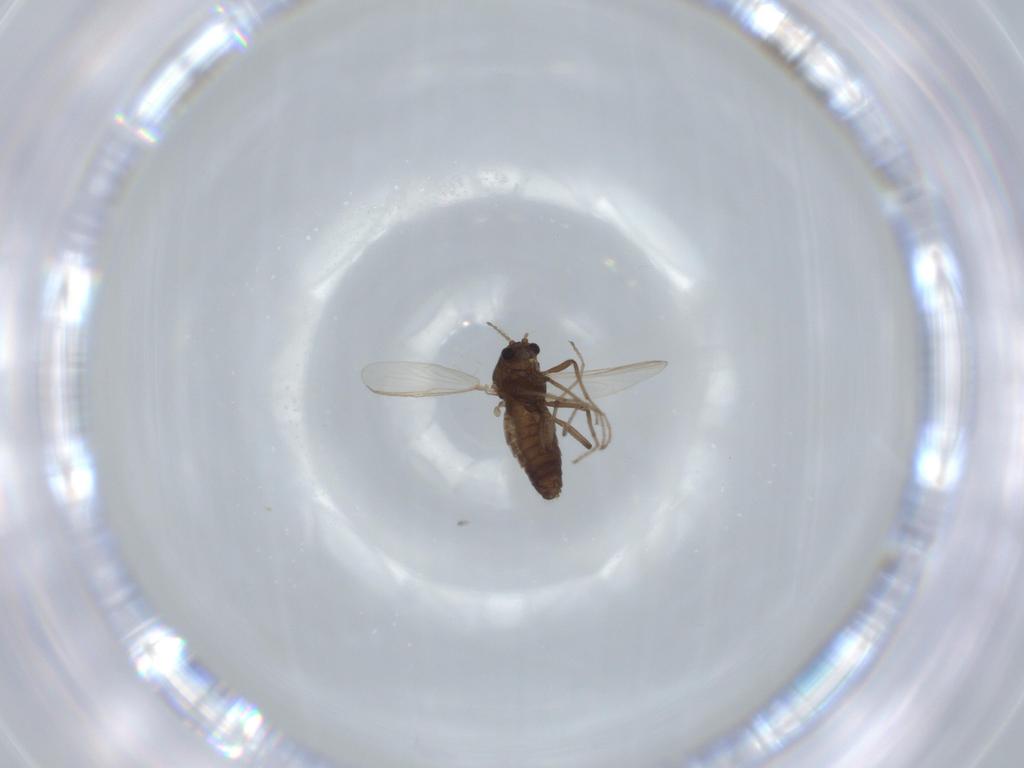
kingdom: Animalia
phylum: Arthropoda
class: Insecta
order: Diptera
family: Chironomidae
